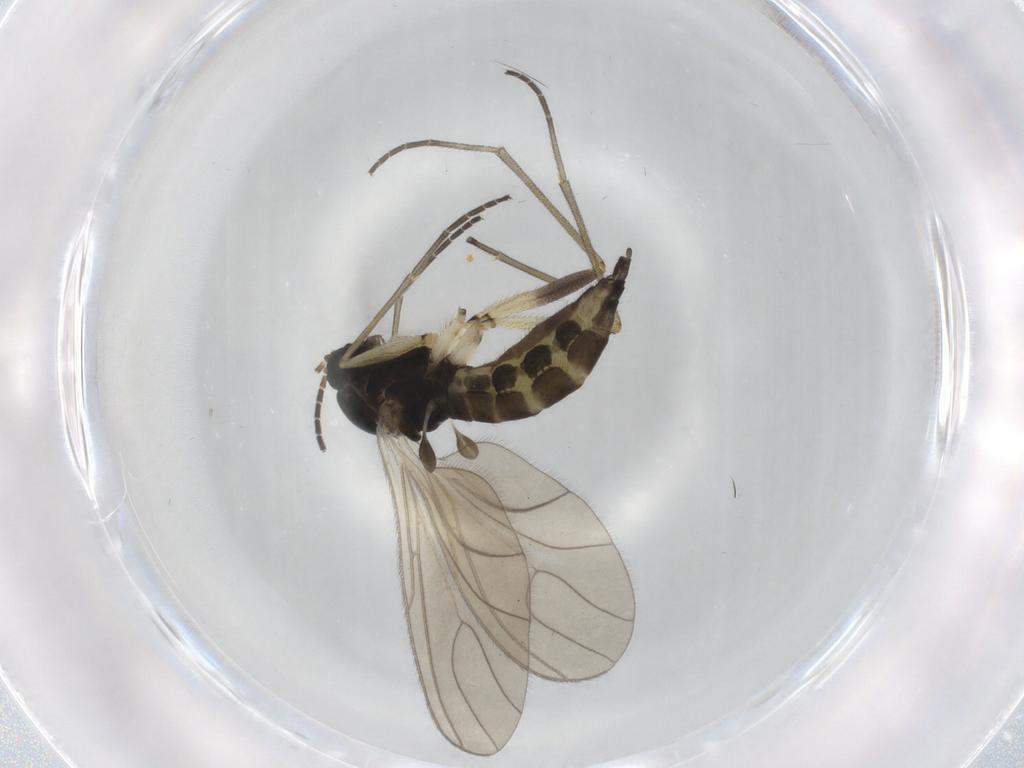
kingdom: Animalia
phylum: Arthropoda
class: Insecta
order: Diptera
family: Sciaridae
